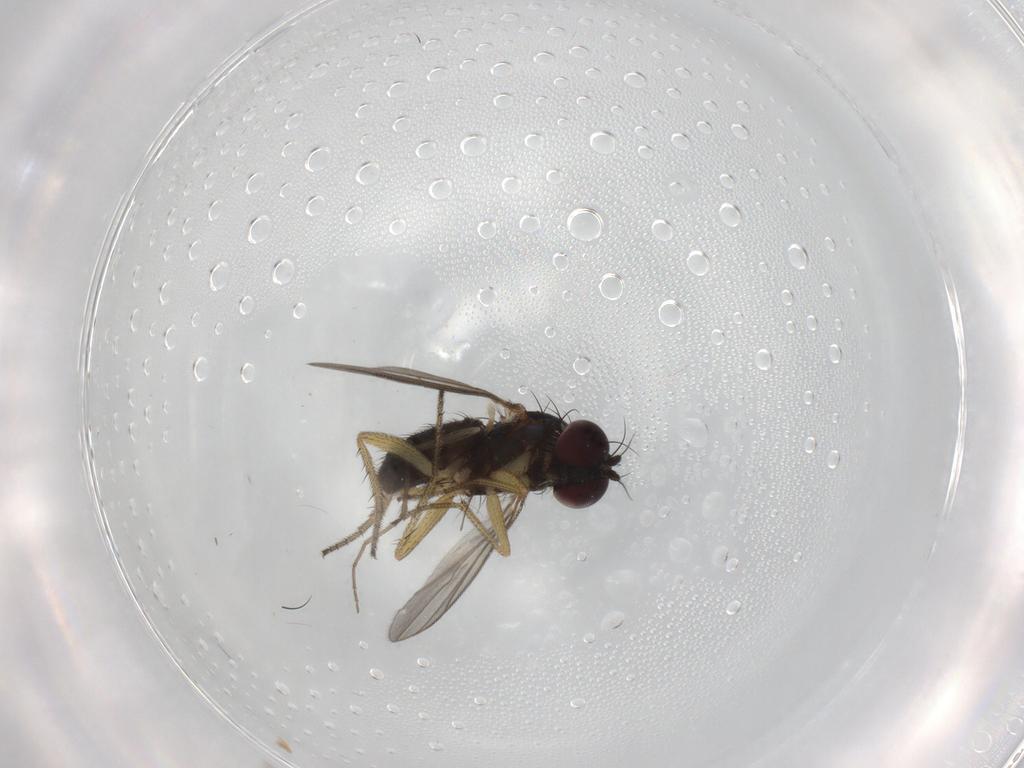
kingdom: Animalia
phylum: Arthropoda
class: Insecta
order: Diptera
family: Chironomidae
